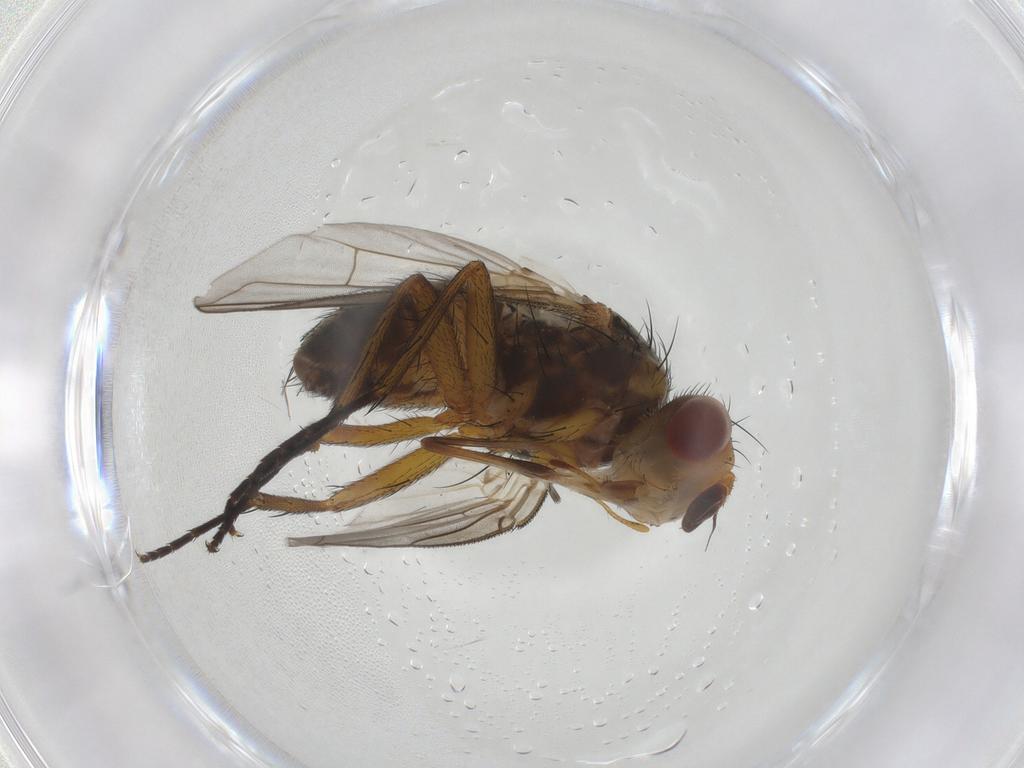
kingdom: Animalia
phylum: Arthropoda
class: Insecta
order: Diptera
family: Tachinidae
